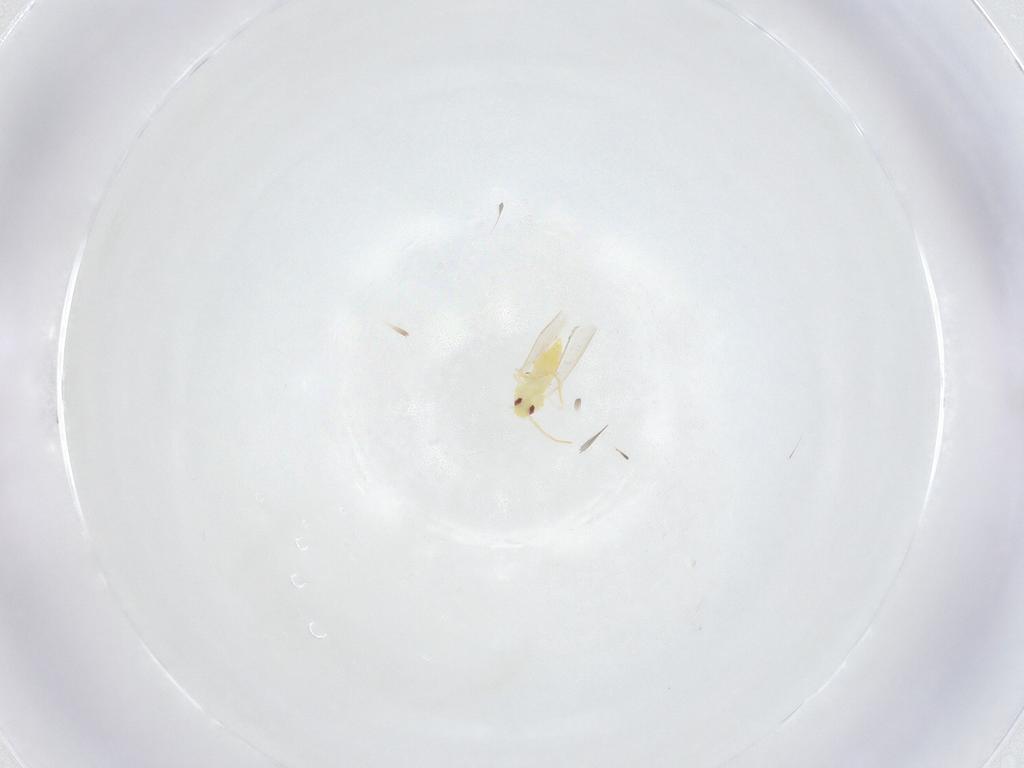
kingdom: Animalia
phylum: Arthropoda
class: Insecta
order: Hemiptera
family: Aleyrodidae
